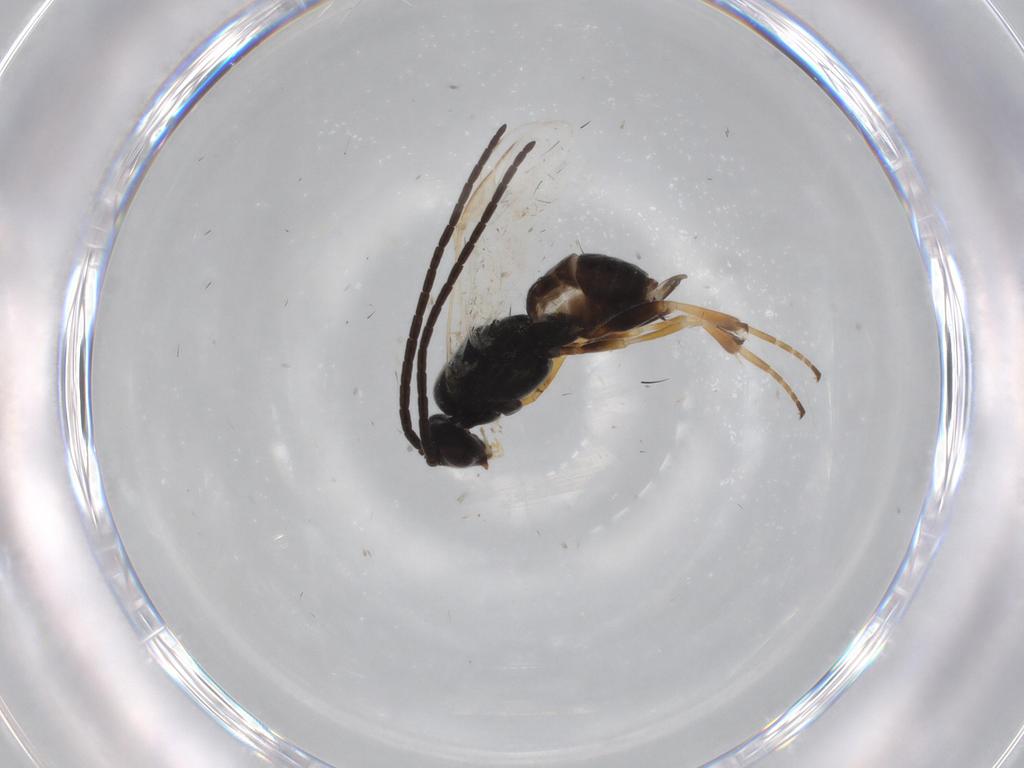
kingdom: Animalia
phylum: Arthropoda
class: Insecta
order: Hymenoptera
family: Braconidae
